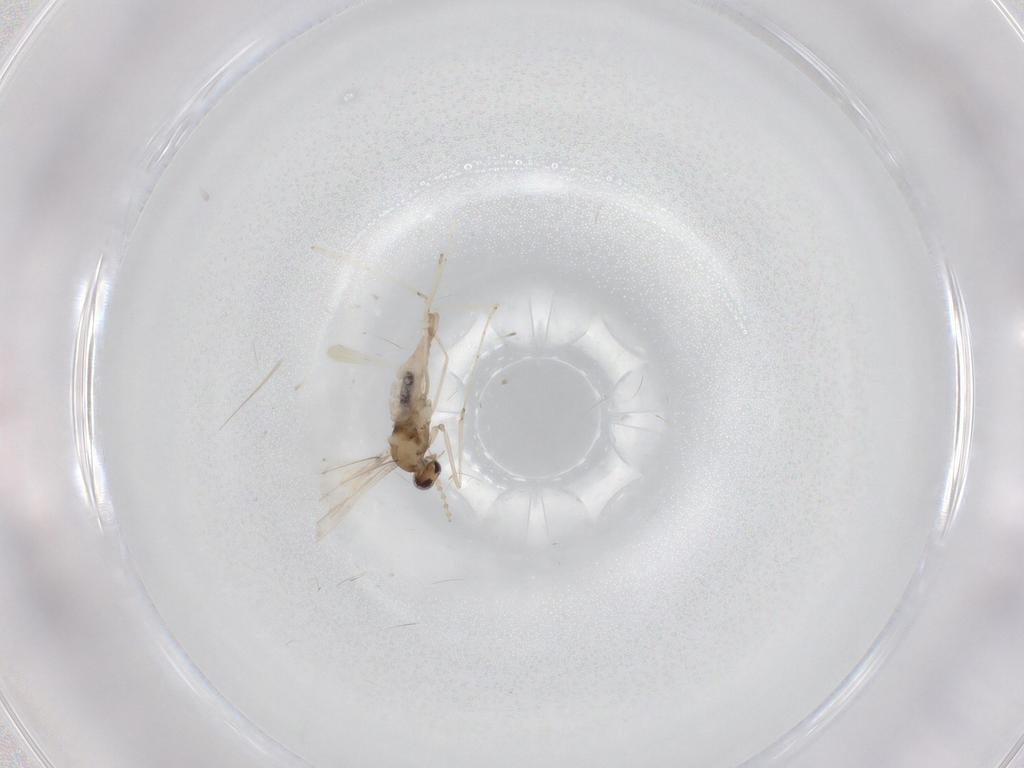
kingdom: Animalia
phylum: Arthropoda
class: Insecta
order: Diptera
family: Cecidomyiidae
